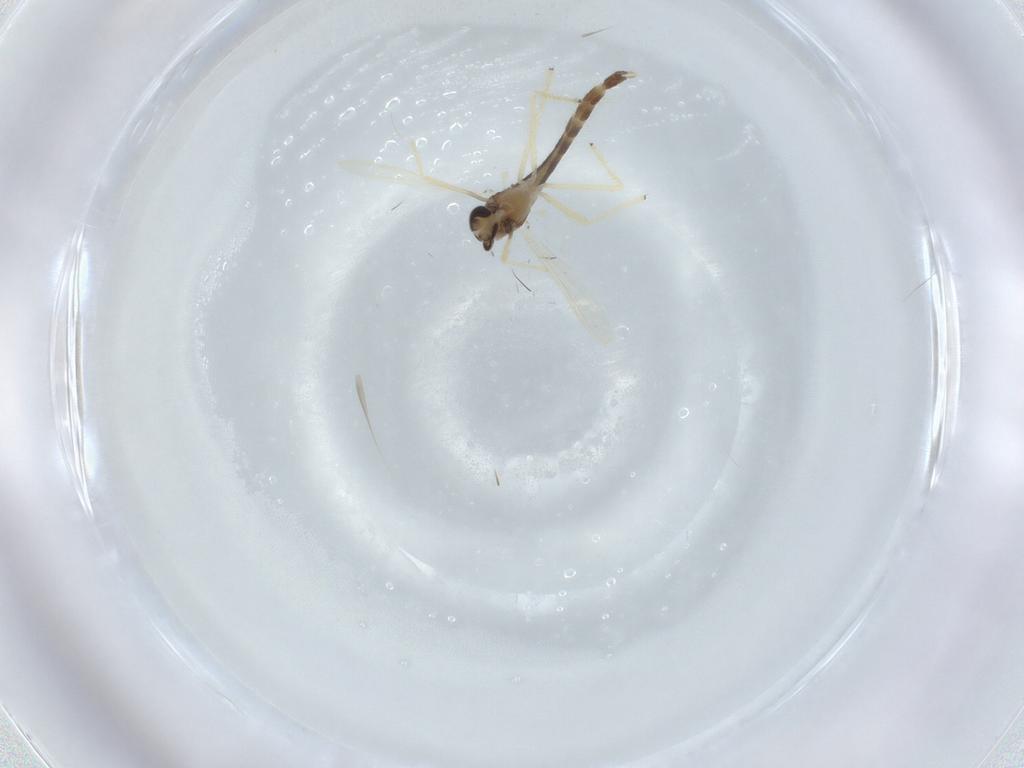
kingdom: Animalia
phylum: Arthropoda
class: Insecta
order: Diptera
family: Chironomidae
